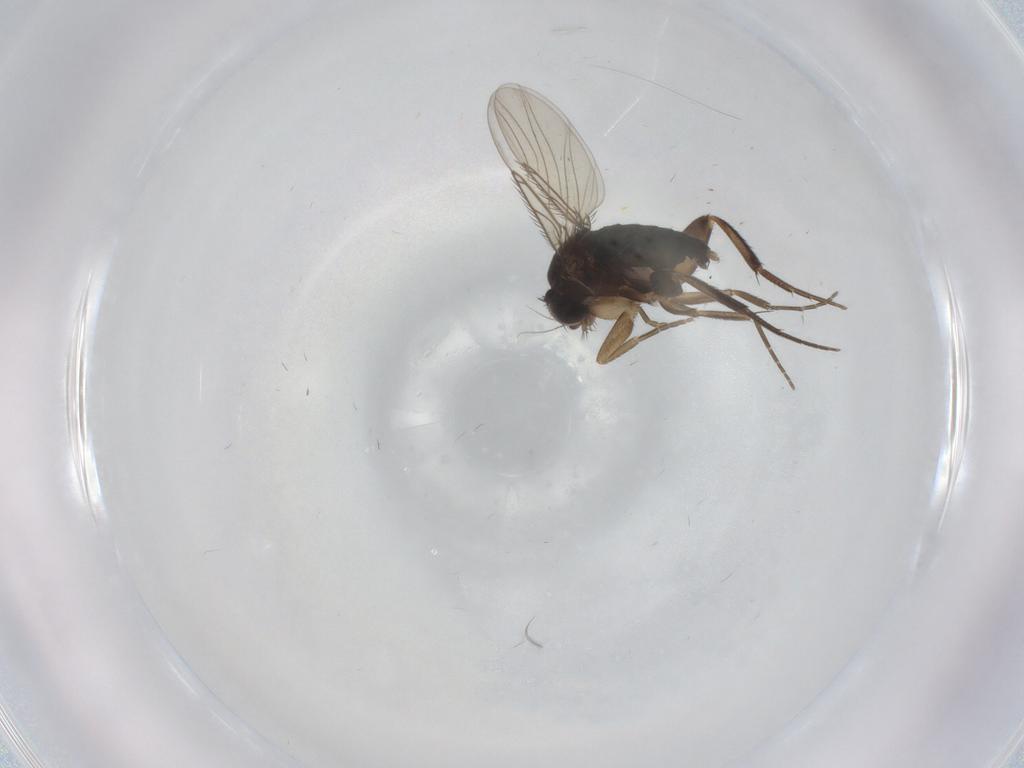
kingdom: Animalia
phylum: Arthropoda
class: Insecta
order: Diptera
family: Phoridae
